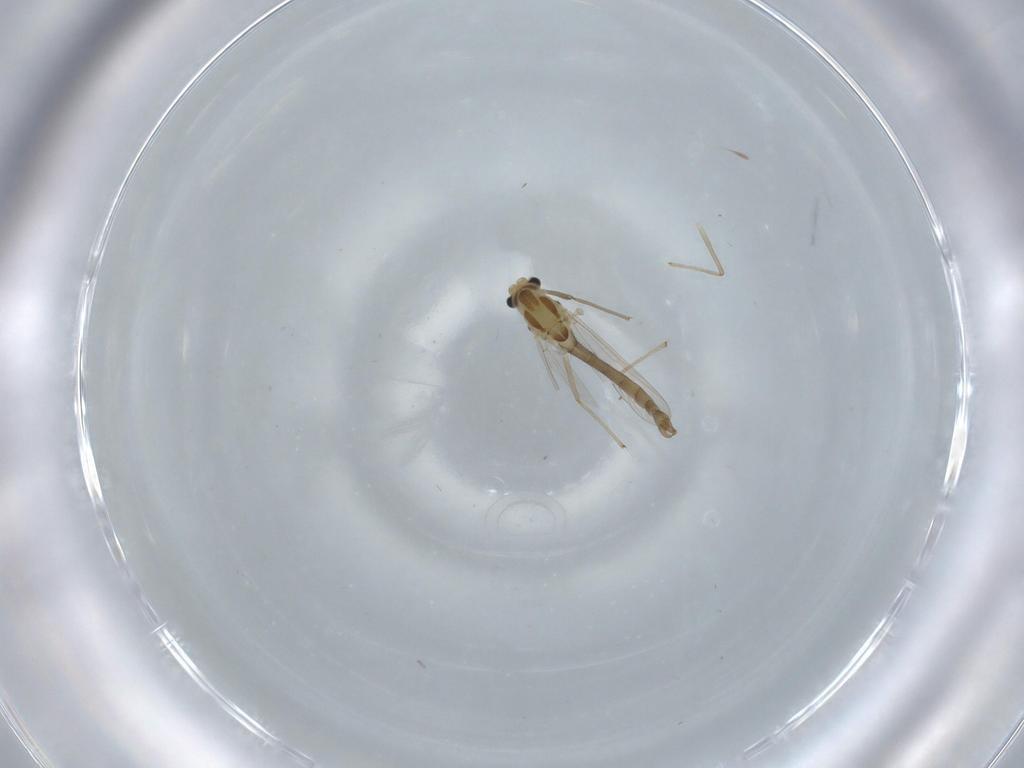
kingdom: Animalia
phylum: Arthropoda
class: Insecta
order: Diptera
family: Chironomidae
